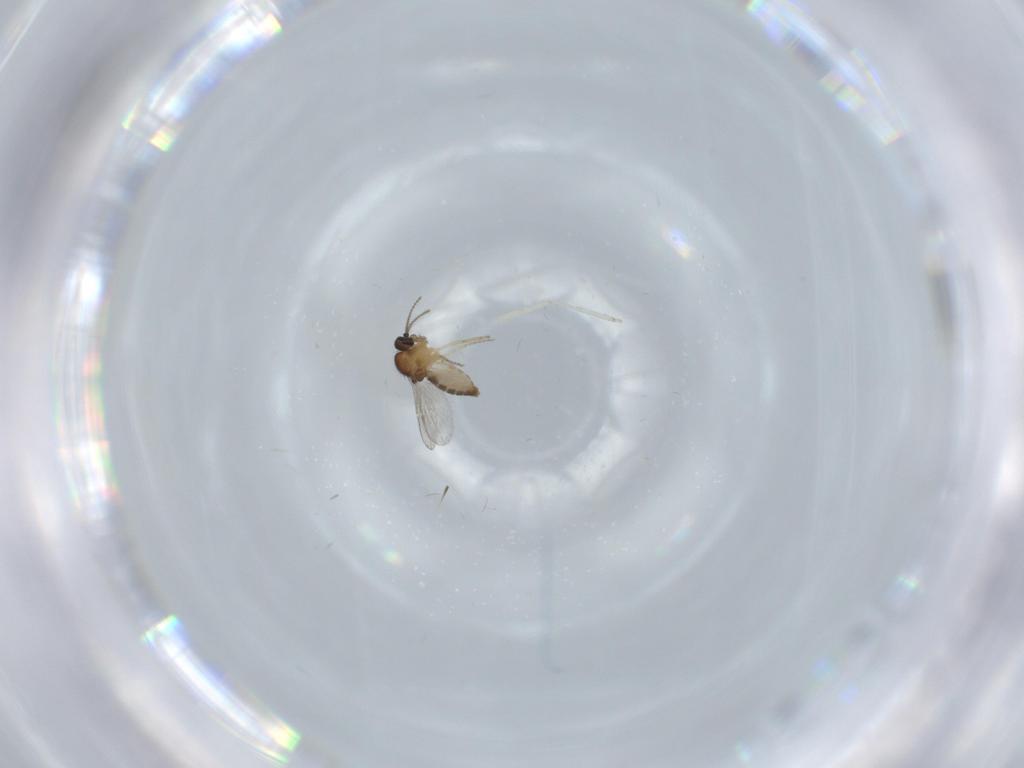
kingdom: Animalia
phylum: Arthropoda
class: Insecta
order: Diptera
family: Ceratopogonidae
